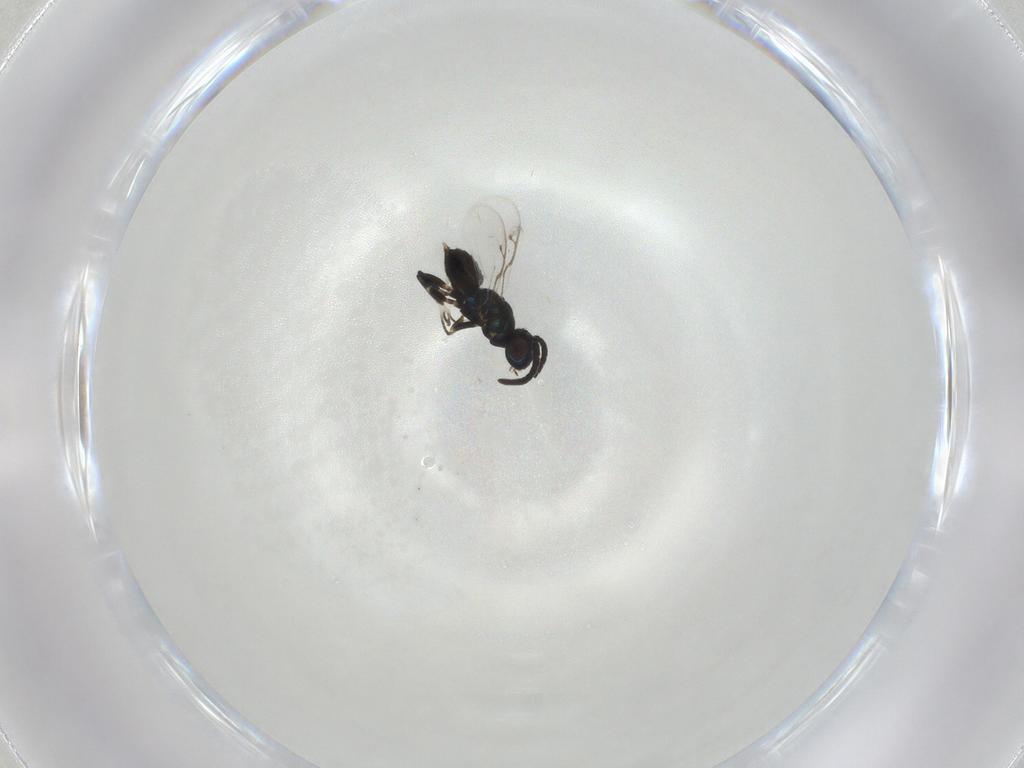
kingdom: Animalia
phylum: Arthropoda
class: Insecta
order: Hymenoptera
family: Eupelmidae
